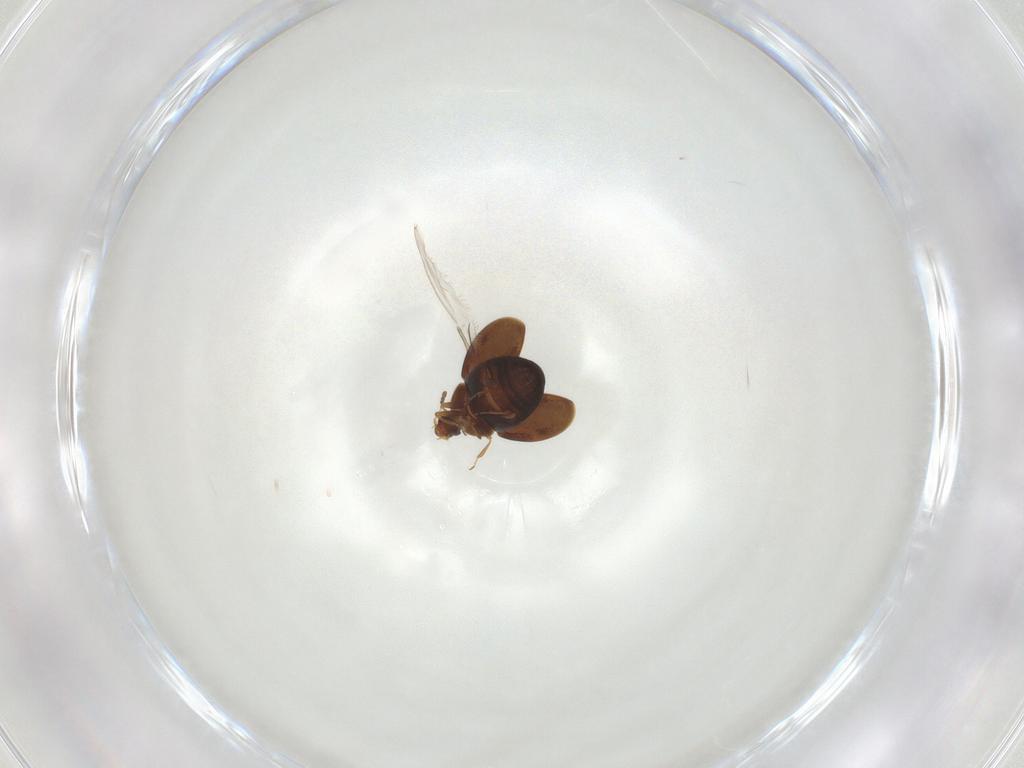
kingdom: Animalia
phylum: Arthropoda
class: Insecta
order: Coleoptera
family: Corylophidae
